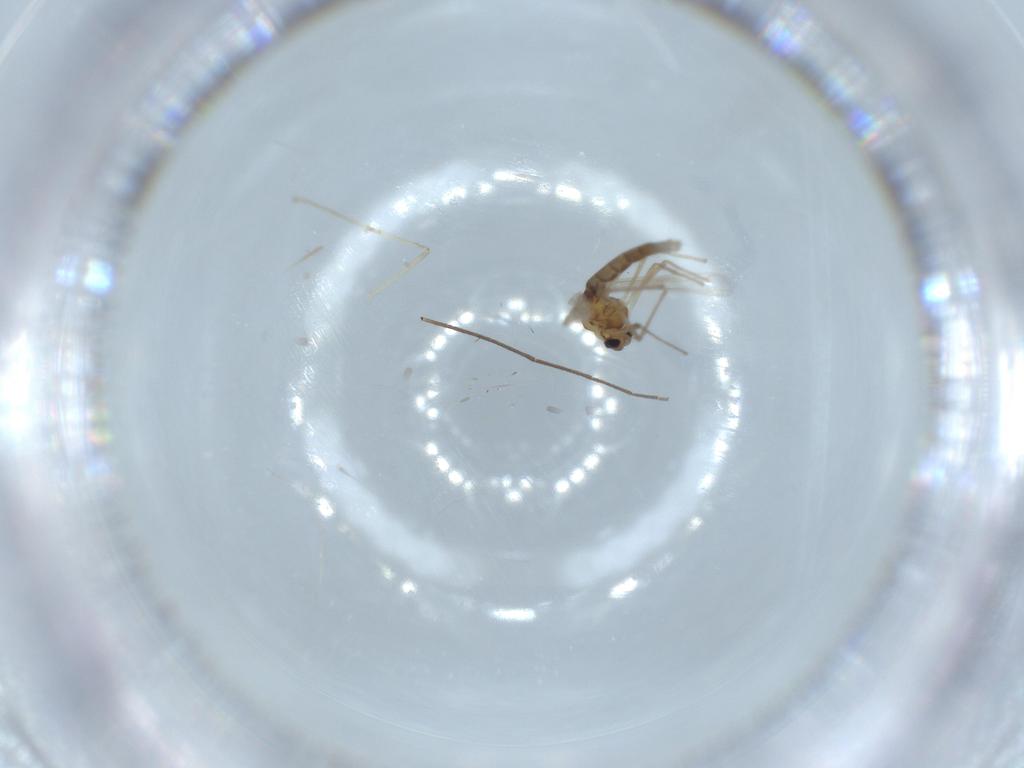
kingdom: Animalia
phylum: Arthropoda
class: Insecta
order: Diptera
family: Chironomidae
